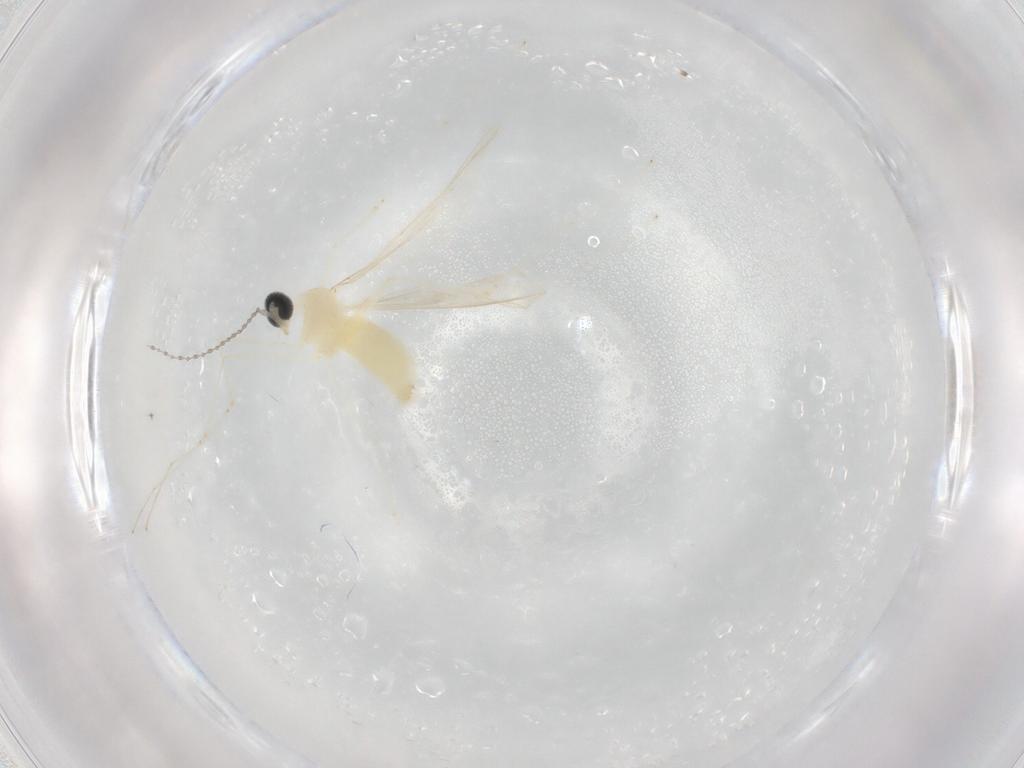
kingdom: Animalia
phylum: Arthropoda
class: Insecta
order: Diptera
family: Cecidomyiidae
